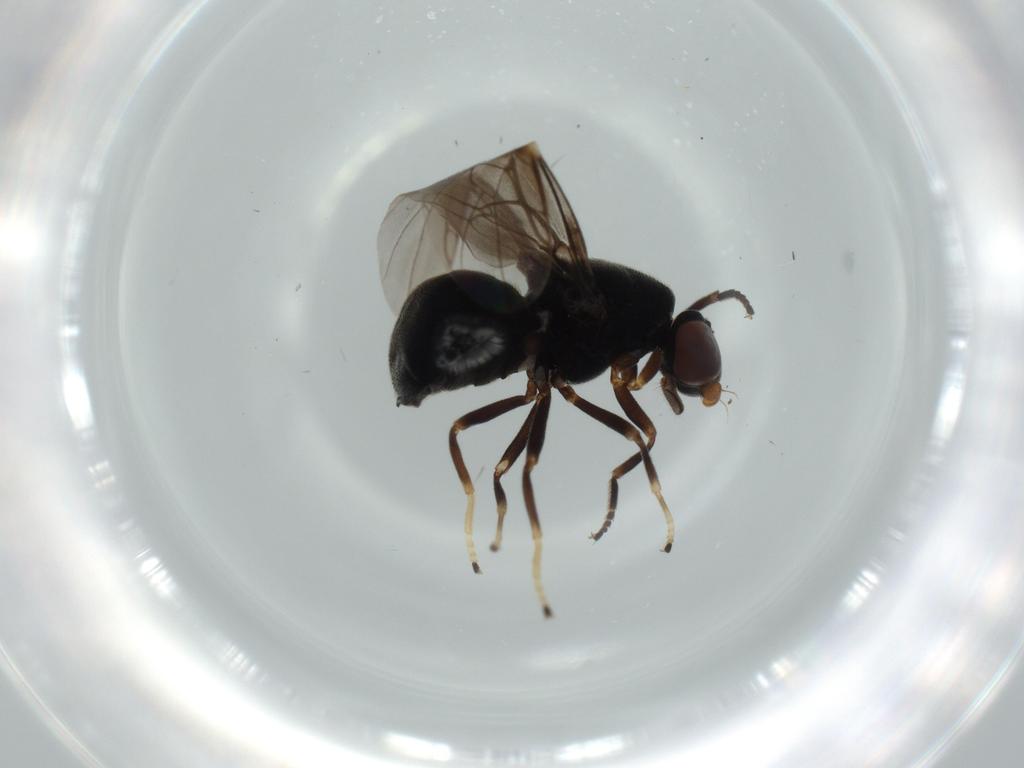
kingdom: Animalia
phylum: Arthropoda
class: Insecta
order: Diptera
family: Stratiomyidae
